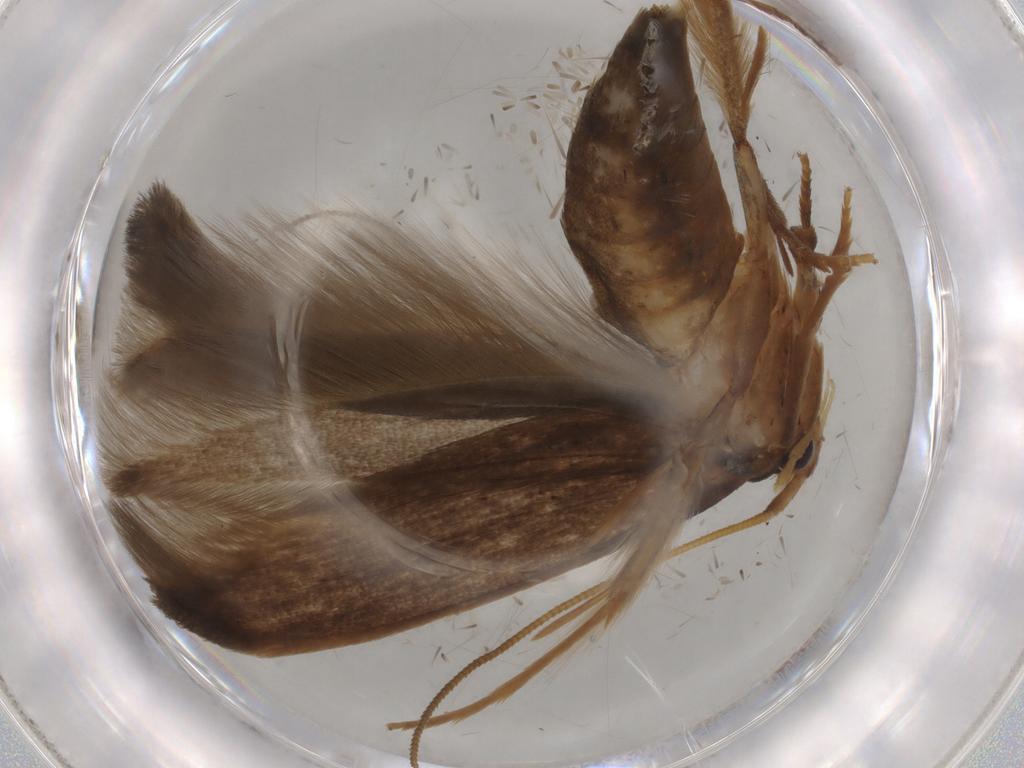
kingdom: Animalia
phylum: Arthropoda
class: Insecta
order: Lepidoptera
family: Tineidae
